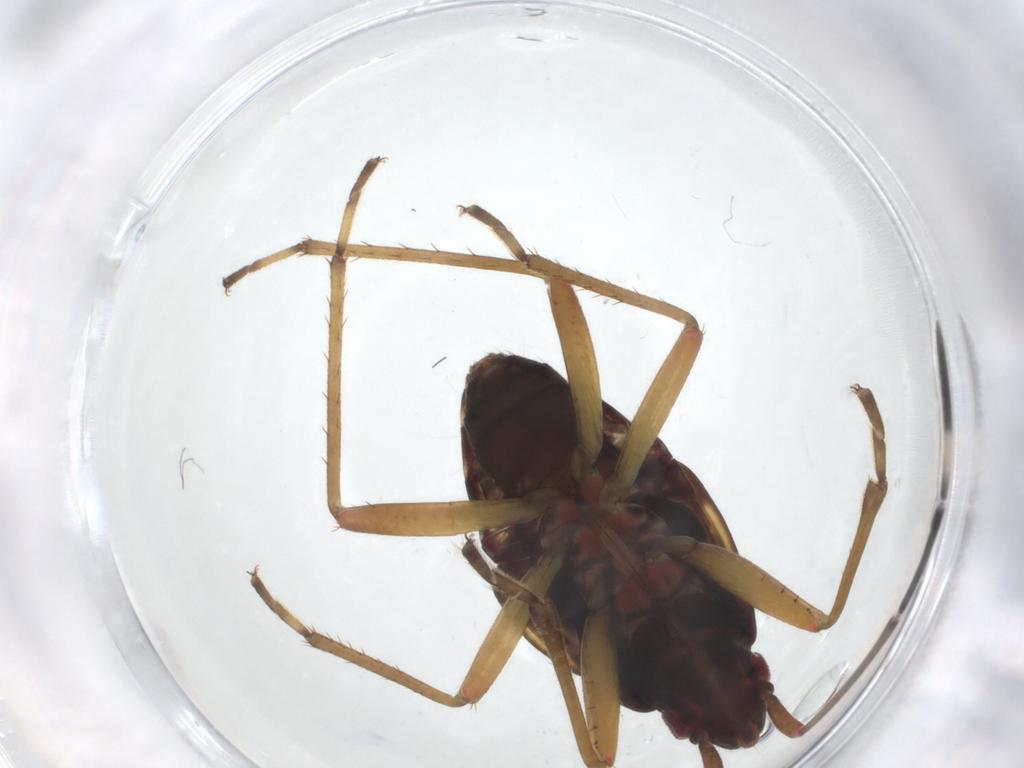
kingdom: Animalia
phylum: Arthropoda
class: Insecta
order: Hemiptera
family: Rhyparochromidae
